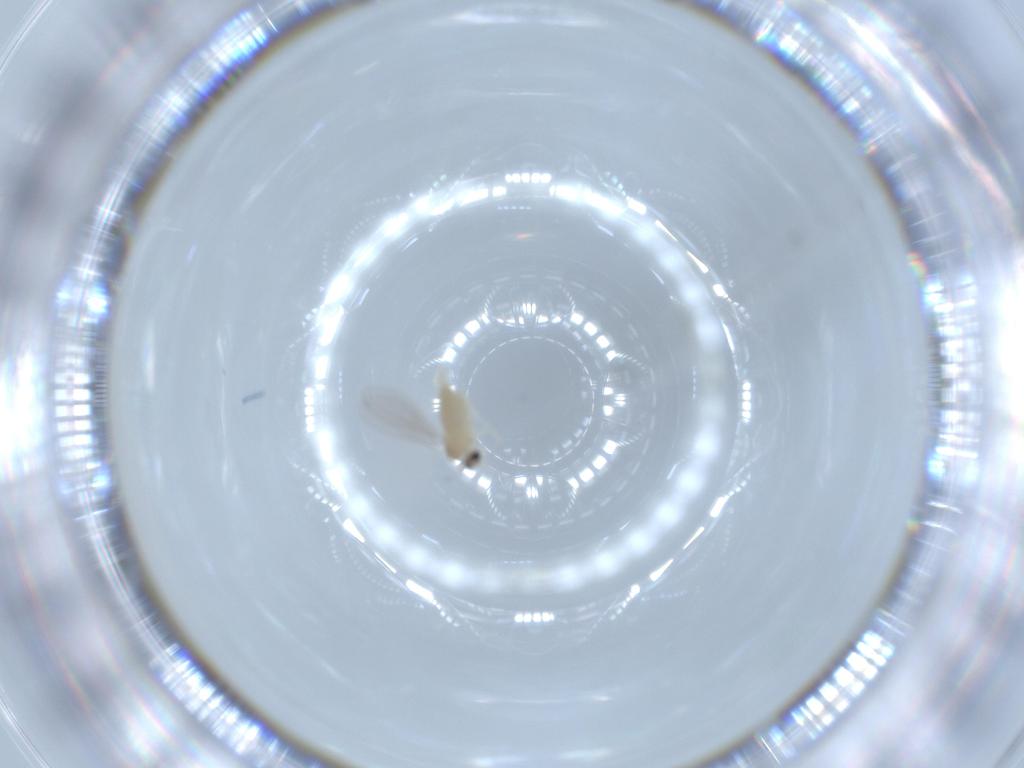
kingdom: Animalia
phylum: Arthropoda
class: Insecta
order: Diptera
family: Cecidomyiidae
